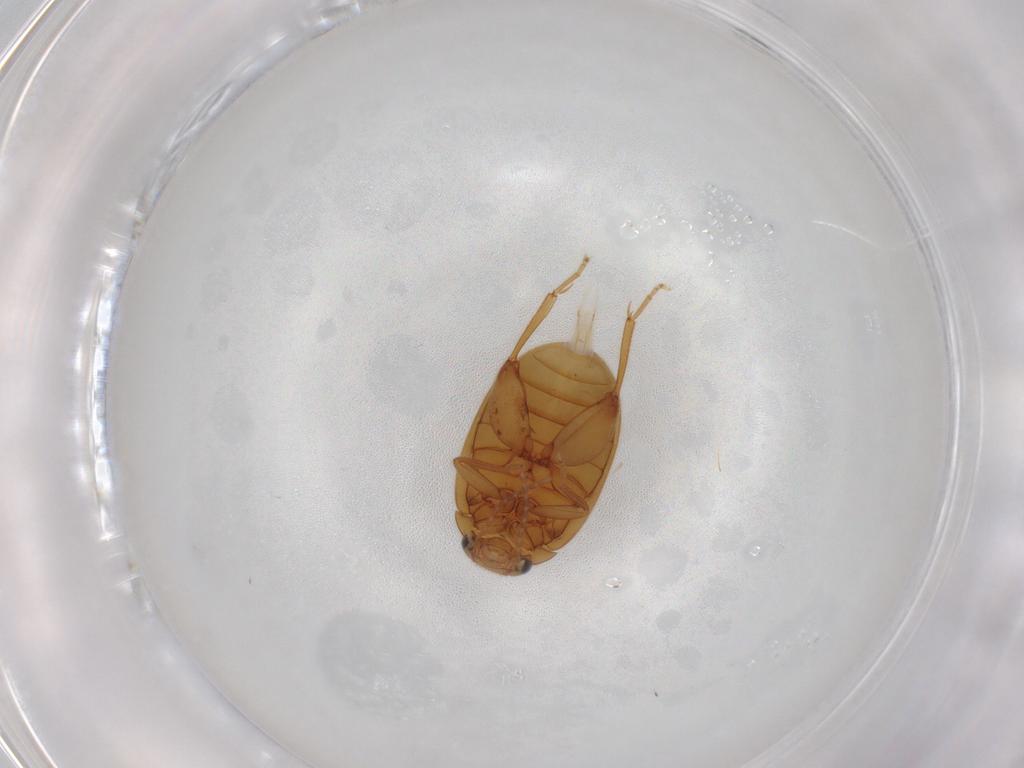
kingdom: Animalia
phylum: Arthropoda
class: Insecta
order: Coleoptera
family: Scirtidae
